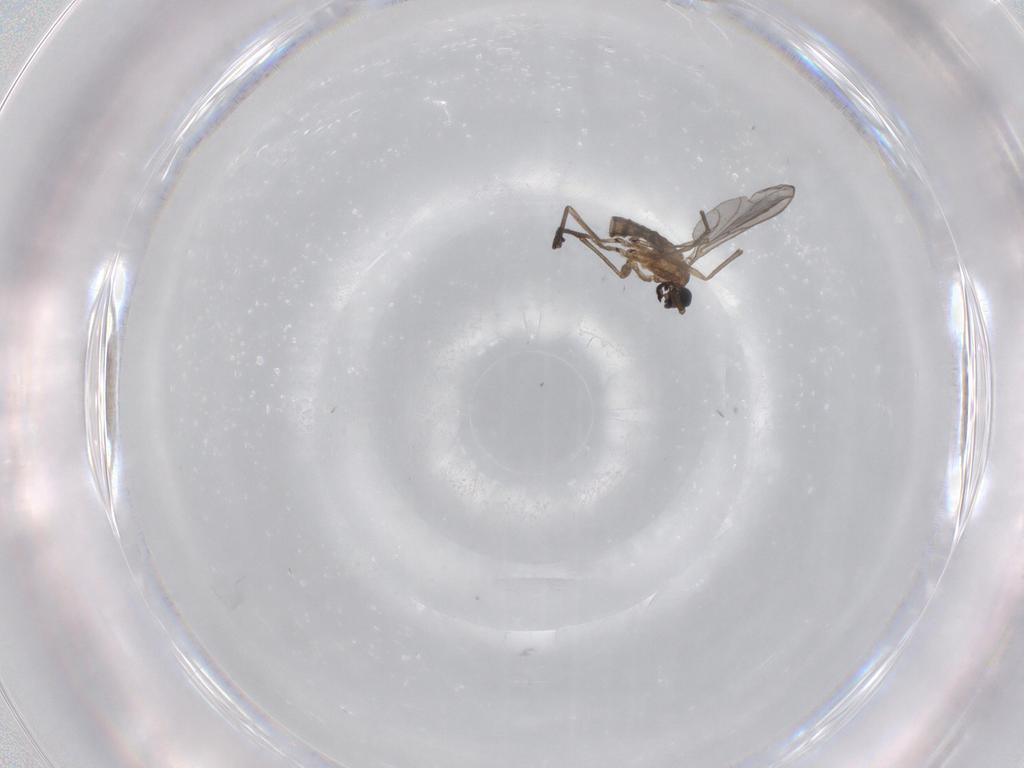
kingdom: Animalia
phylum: Arthropoda
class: Insecta
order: Diptera
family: Sciaridae
